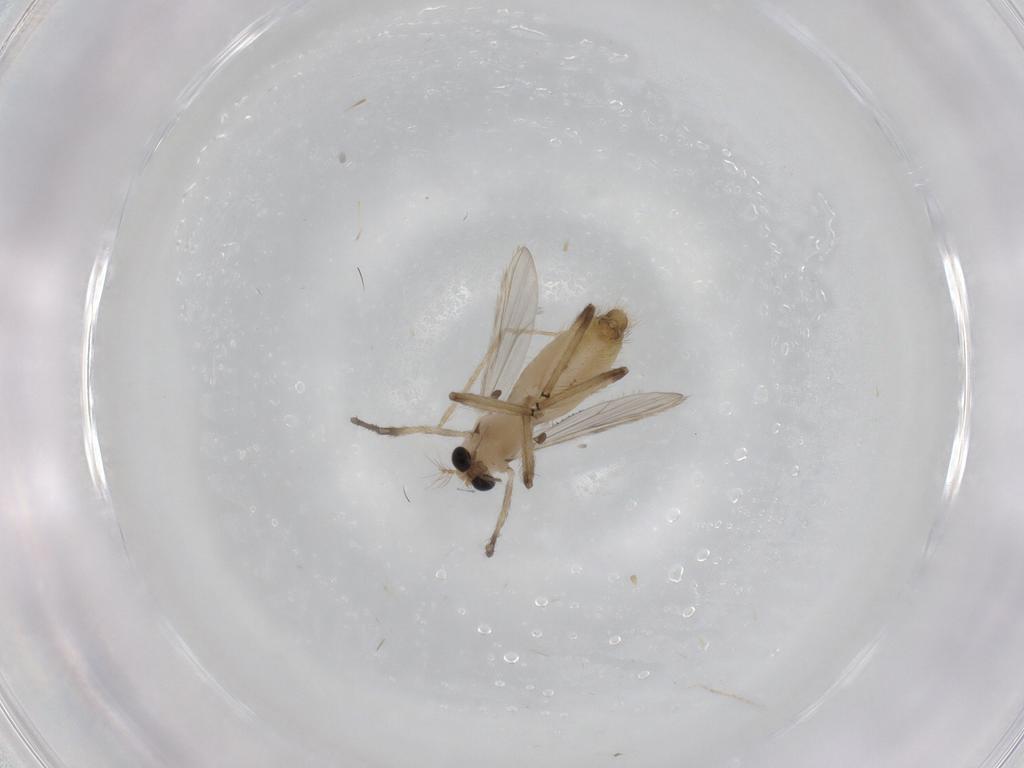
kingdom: Animalia
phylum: Arthropoda
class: Insecta
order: Diptera
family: Chironomidae
